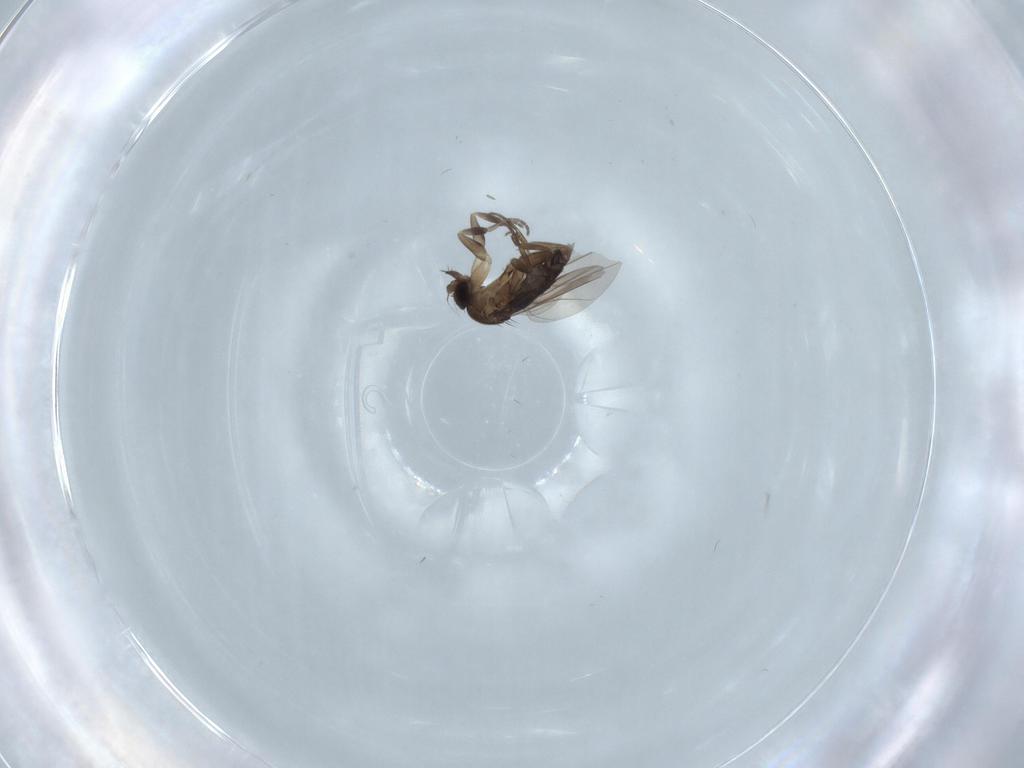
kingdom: Animalia
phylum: Arthropoda
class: Insecta
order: Diptera
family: Phoridae
